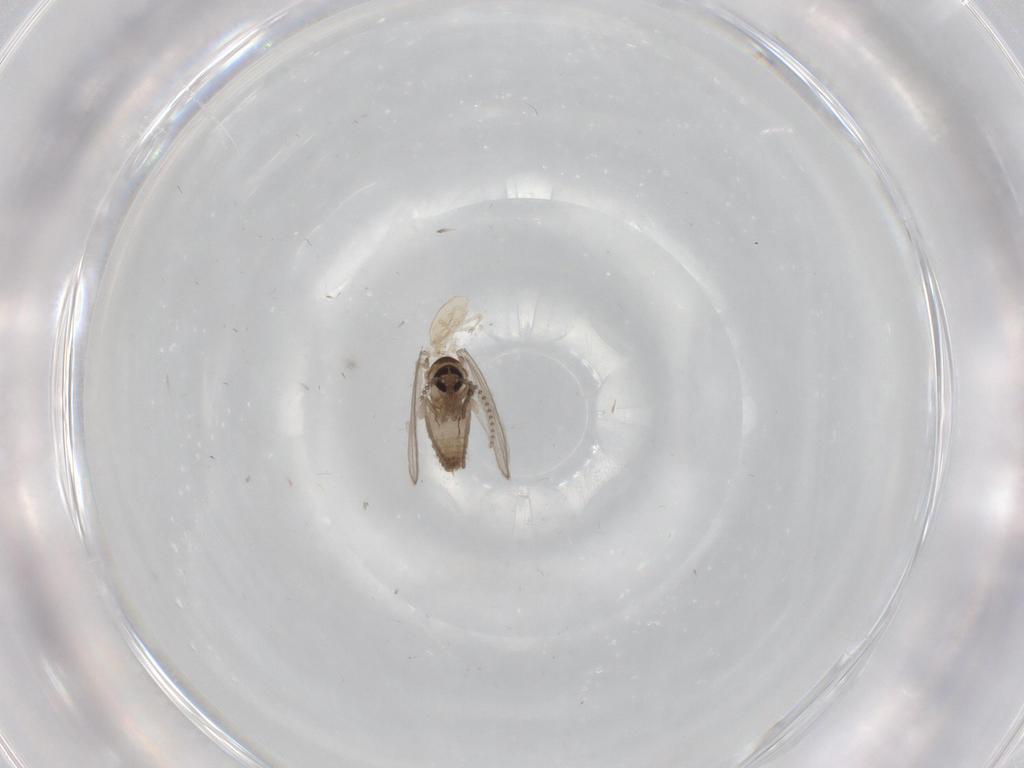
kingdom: Animalia
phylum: Arthropoda
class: Insecta
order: Diptera
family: Psychodidae
